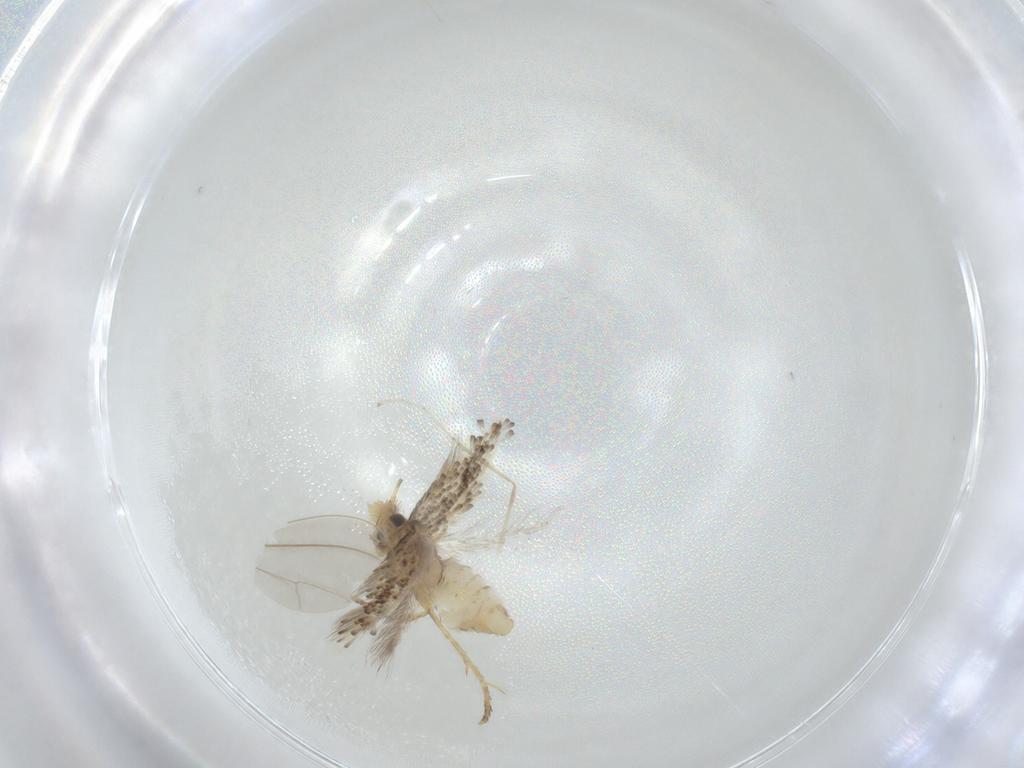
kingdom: Animalia
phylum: Arthropoda
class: Insecta
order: Lepidoptera
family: Nepticulidae
